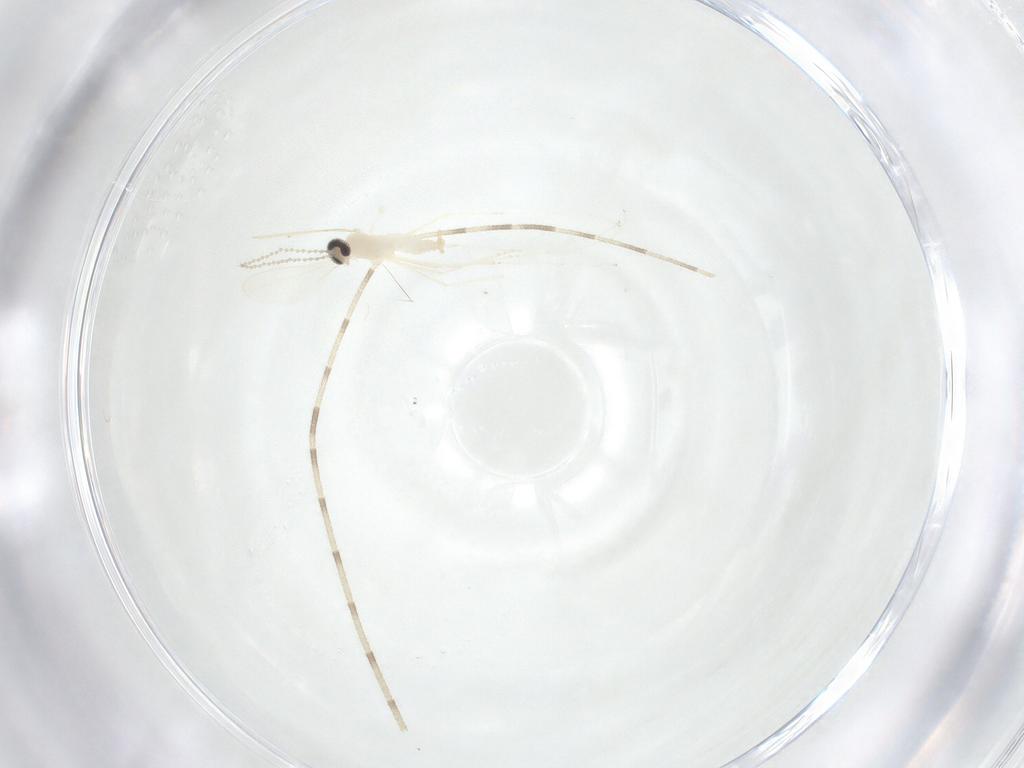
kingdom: Animalia
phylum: Arthropoda
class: Insecta
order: Diptera
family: Cecidomyiidae
